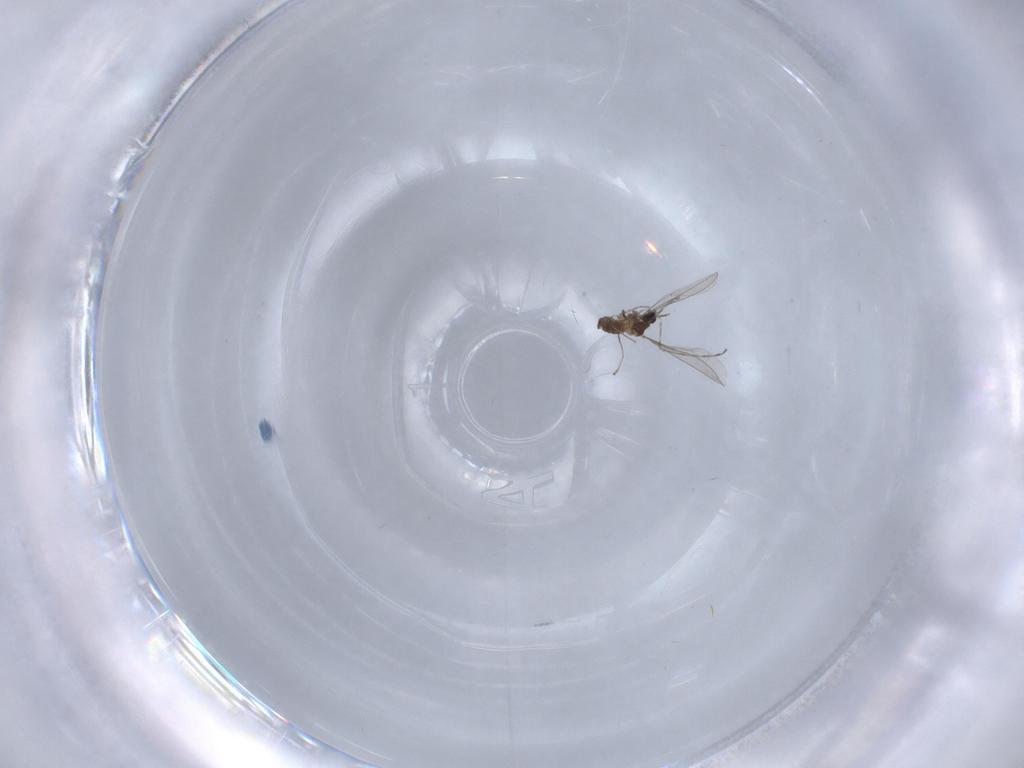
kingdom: Animalia
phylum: Arthropoda
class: Insecta
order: Diptera
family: Cecidomyiidae
